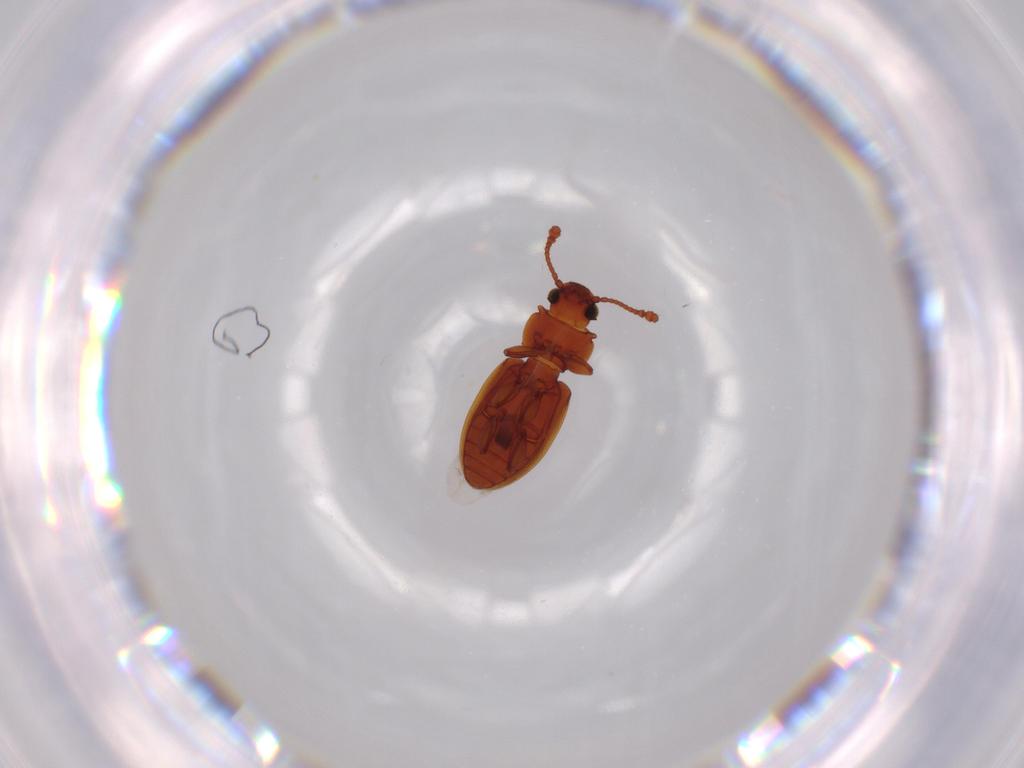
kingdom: Animalia
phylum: Arthropoda
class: Insecta
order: Coleoptera
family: Silvanidae
